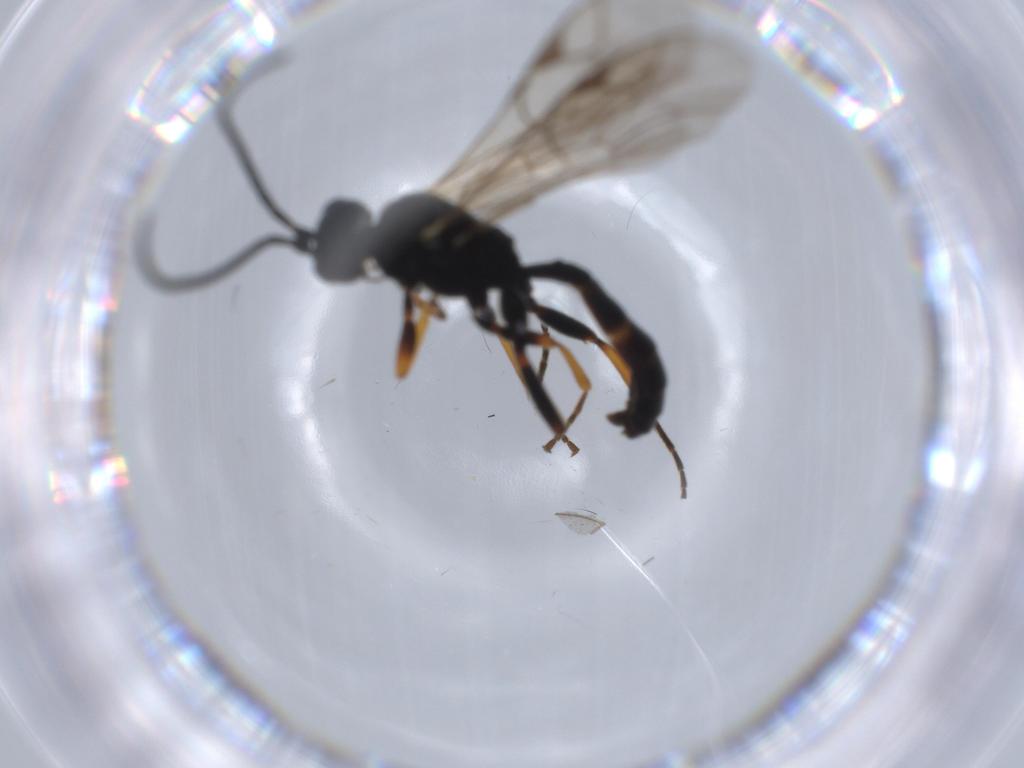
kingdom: Animalia
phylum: Arthropoda
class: Insecta
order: Hymenoptera
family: Ichneumonidae
